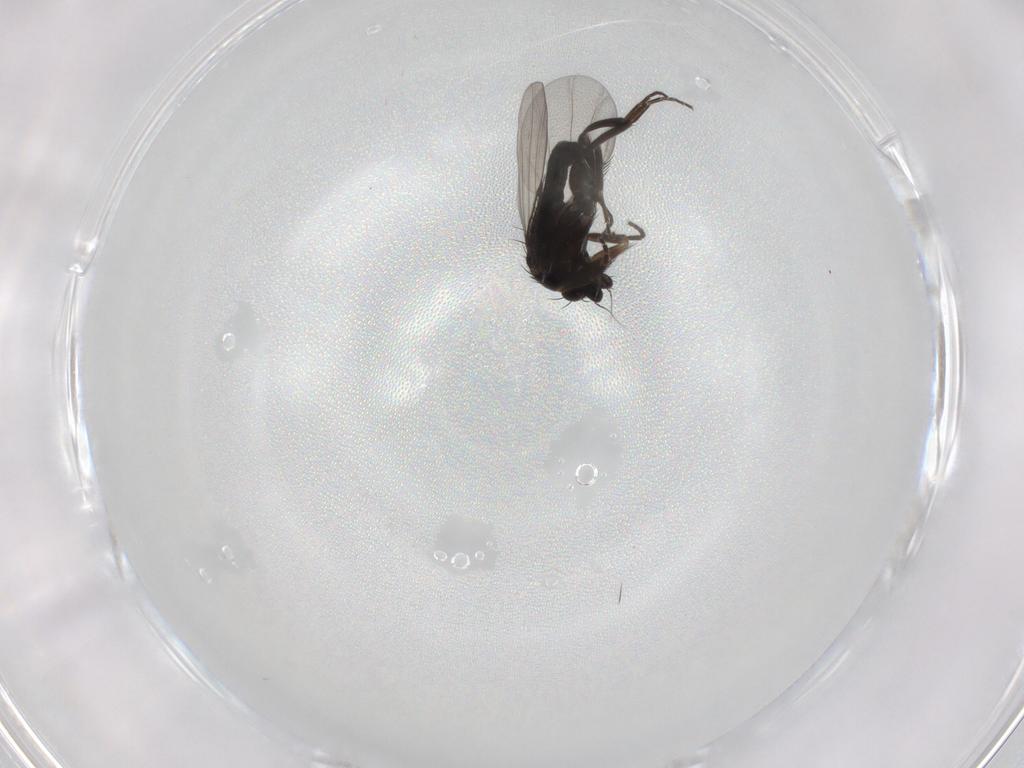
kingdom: Animalia
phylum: Arthropoda
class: Insecta
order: Diptera
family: Phoridae
